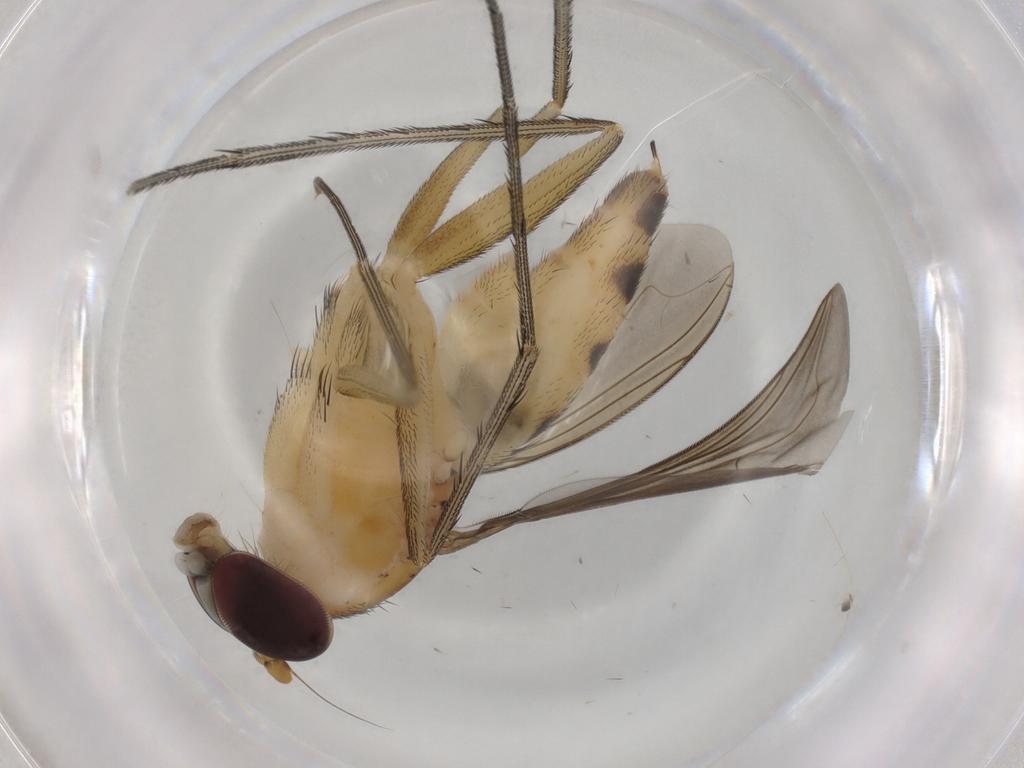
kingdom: Animalia
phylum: Arthropoda
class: Insecta
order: Diptera
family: Dolichopodidae
